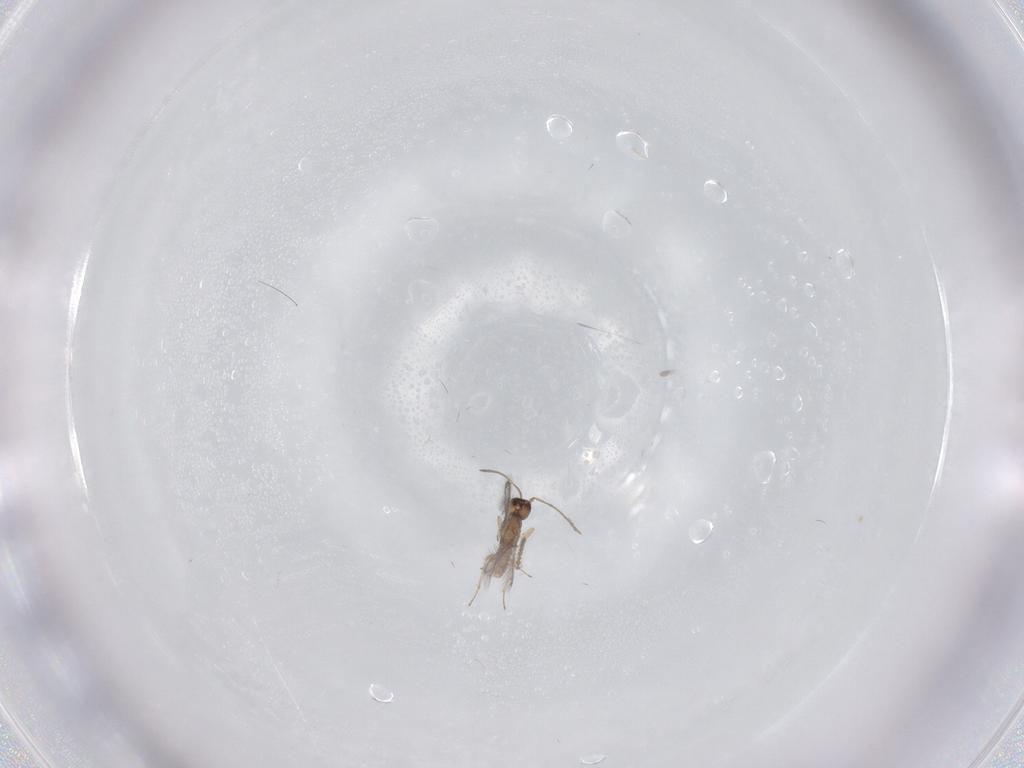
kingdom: Animalia
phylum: Arthropoda
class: Insecta
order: Hymenoptera
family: Mymaridae
